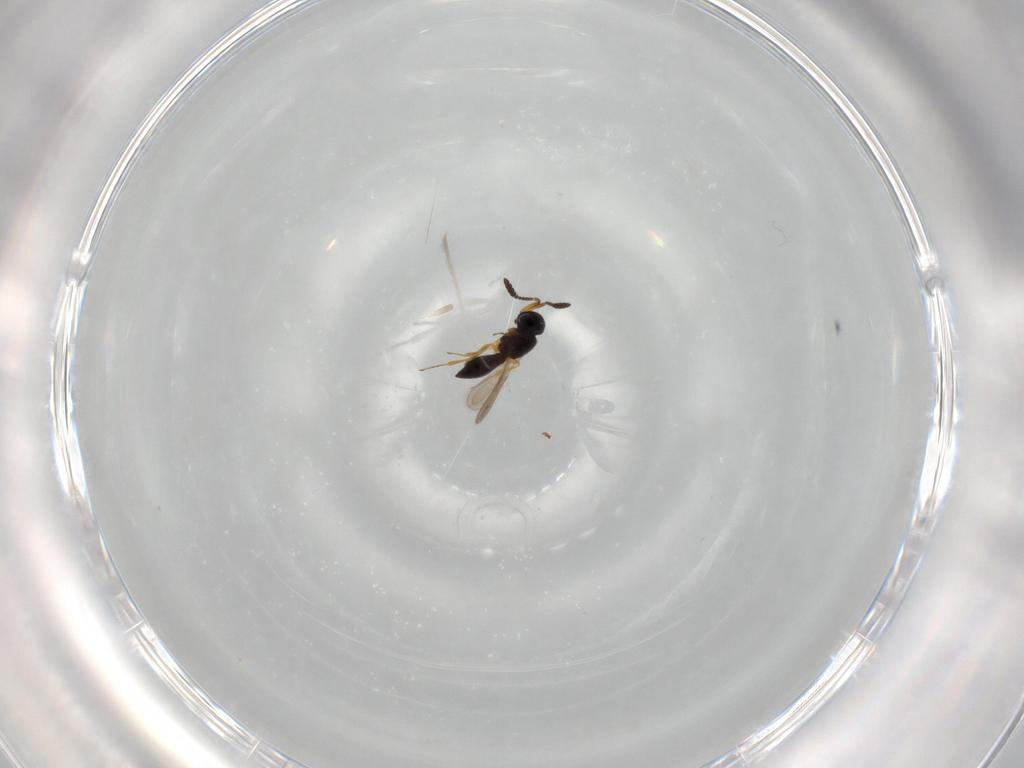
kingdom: Animalia
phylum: Arthropoda
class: Insecta
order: Hymenoptera
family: Scelionidae
